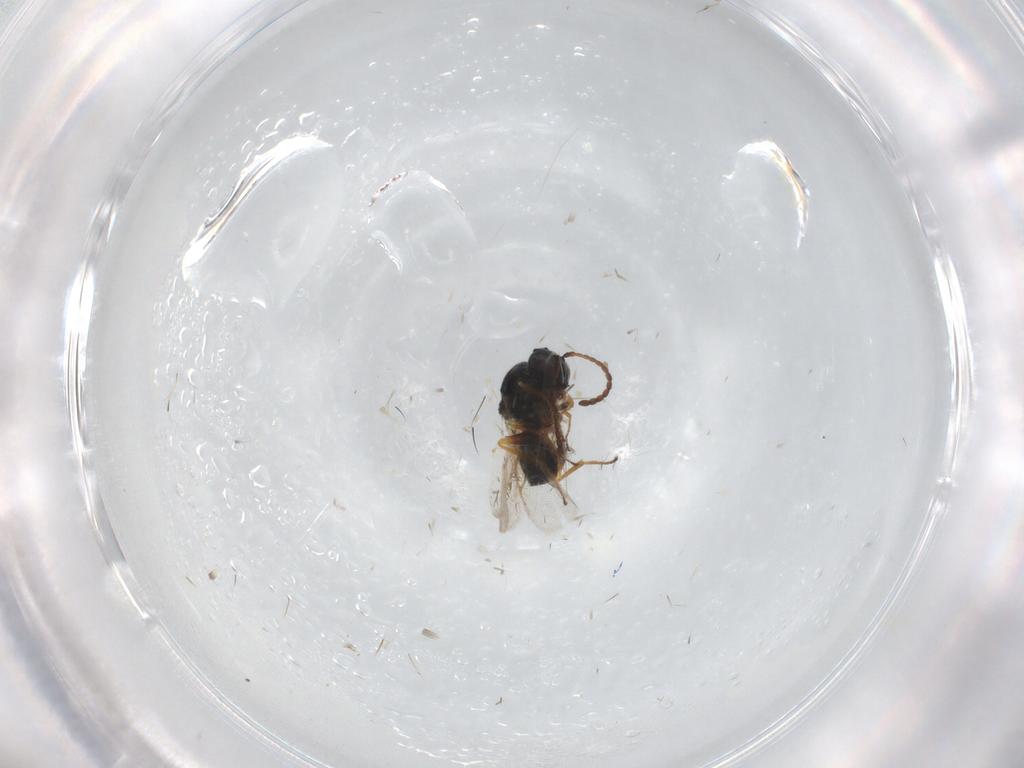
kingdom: Animalia
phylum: Arthropoda
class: Insecta
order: Hymenoptera
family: Figitidae
